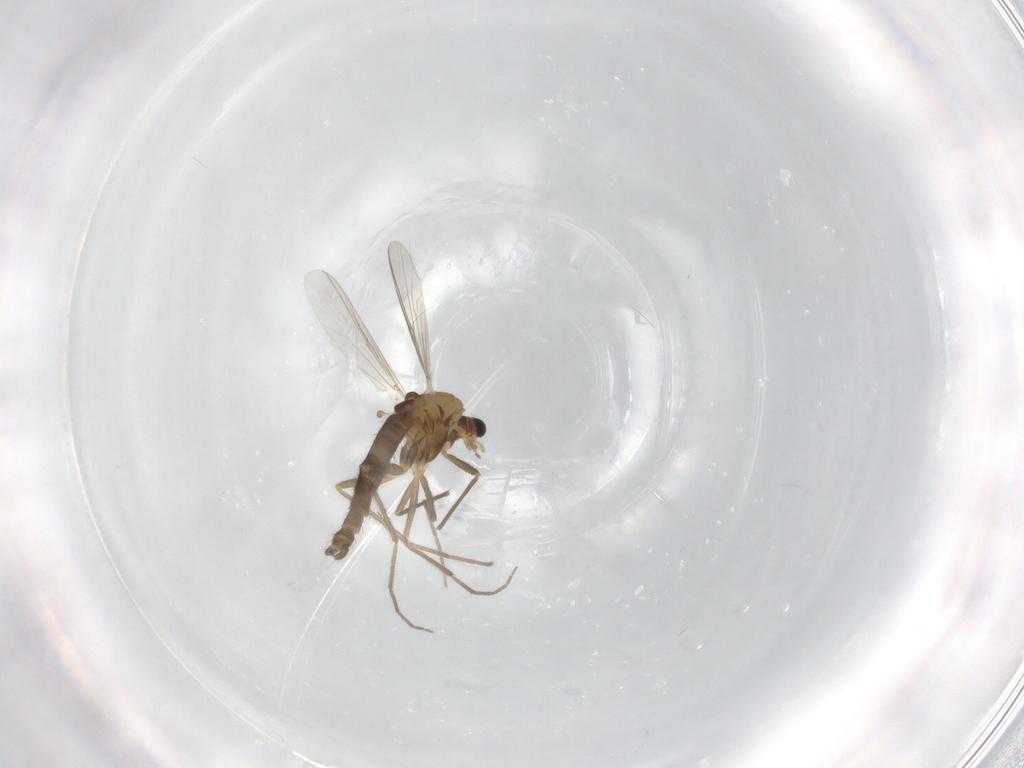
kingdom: Animalia
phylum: Arthropoda
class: Insecta
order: Diptera
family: Chironomidae
